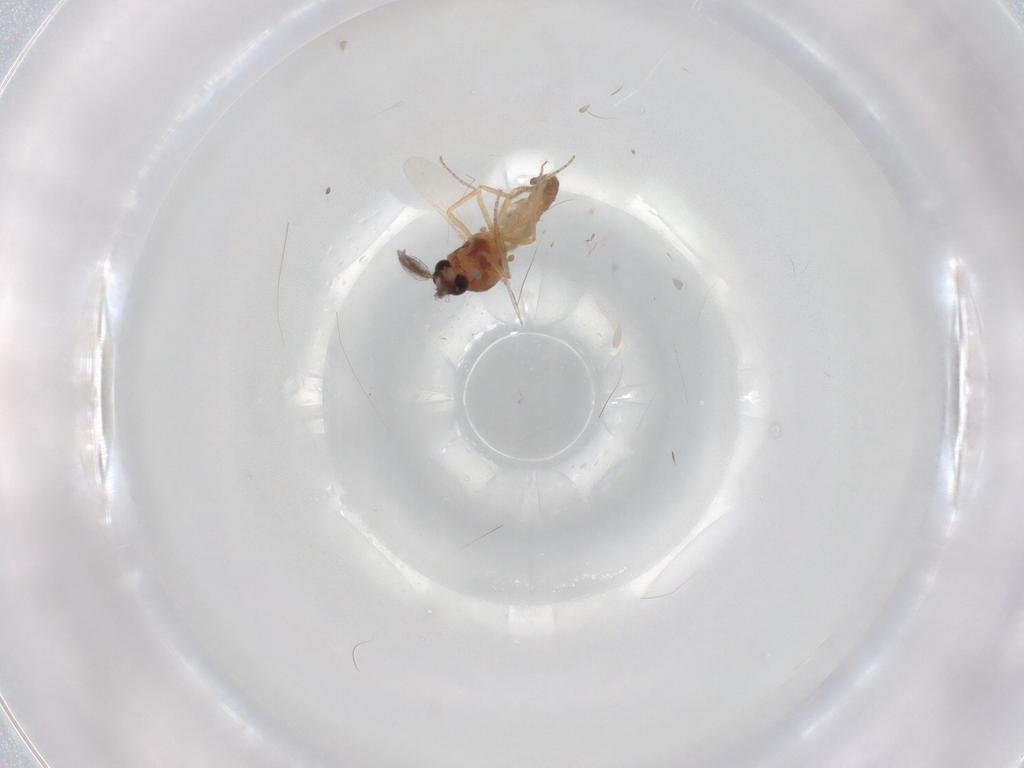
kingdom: Animalia
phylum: Arthropoda
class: Insecta
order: Diptera
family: Ceratopogonidae
